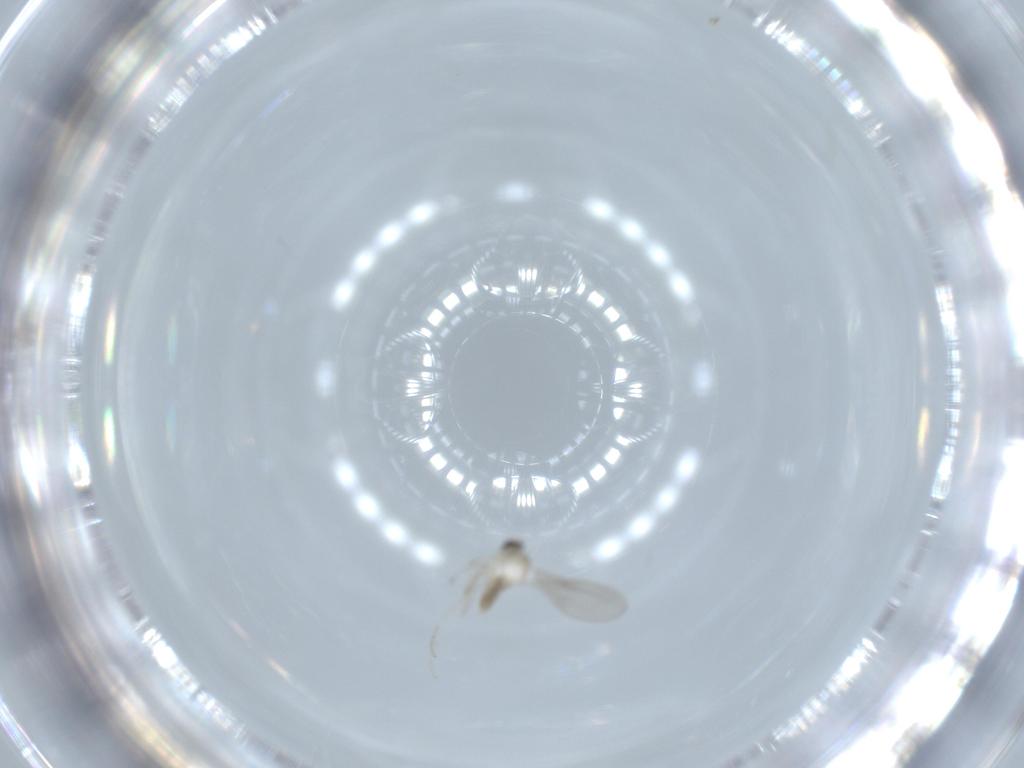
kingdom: Animalia
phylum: Arthropoda
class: Insecta
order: Diptera
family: Cecidomyiidae
